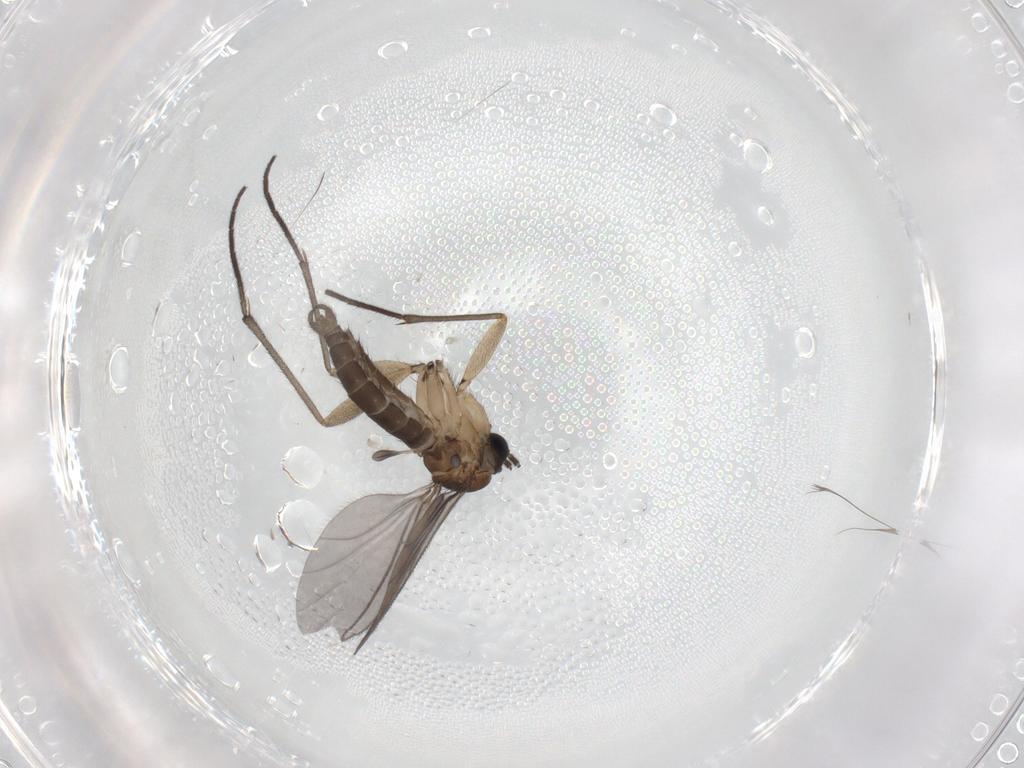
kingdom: Animalia
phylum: Arthropoda
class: Insecta
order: Diptera
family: Sciaridae
